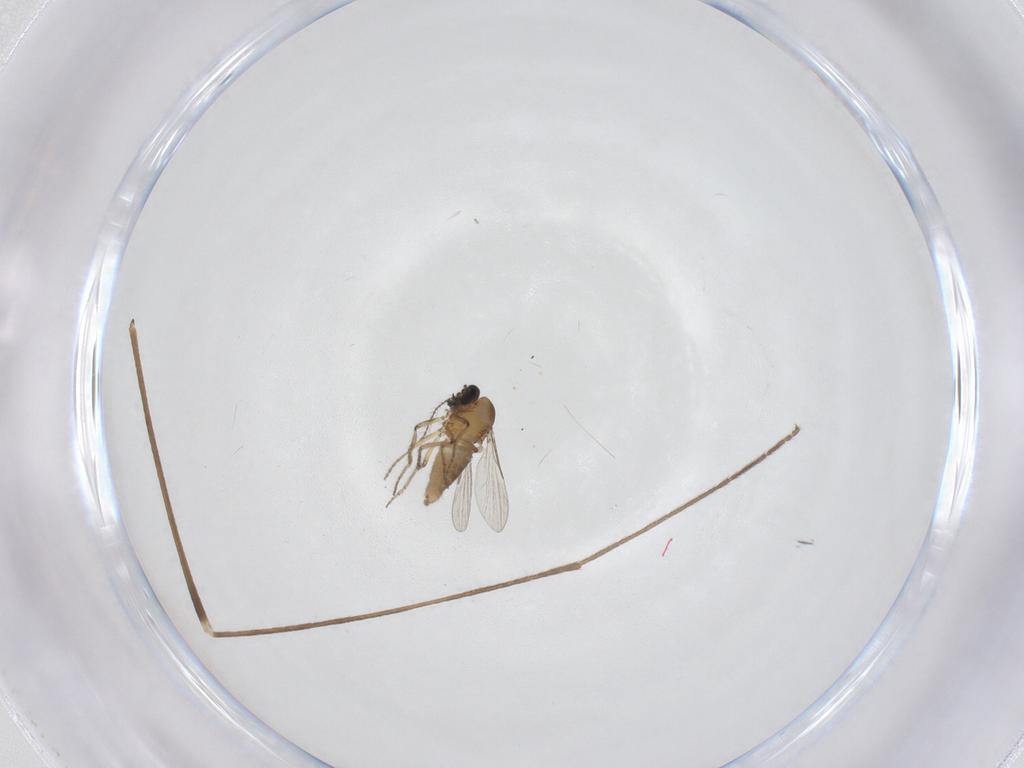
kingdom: Animalia
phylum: Arthropoda
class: Insecta
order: Diptera
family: Ceratopogonidae
